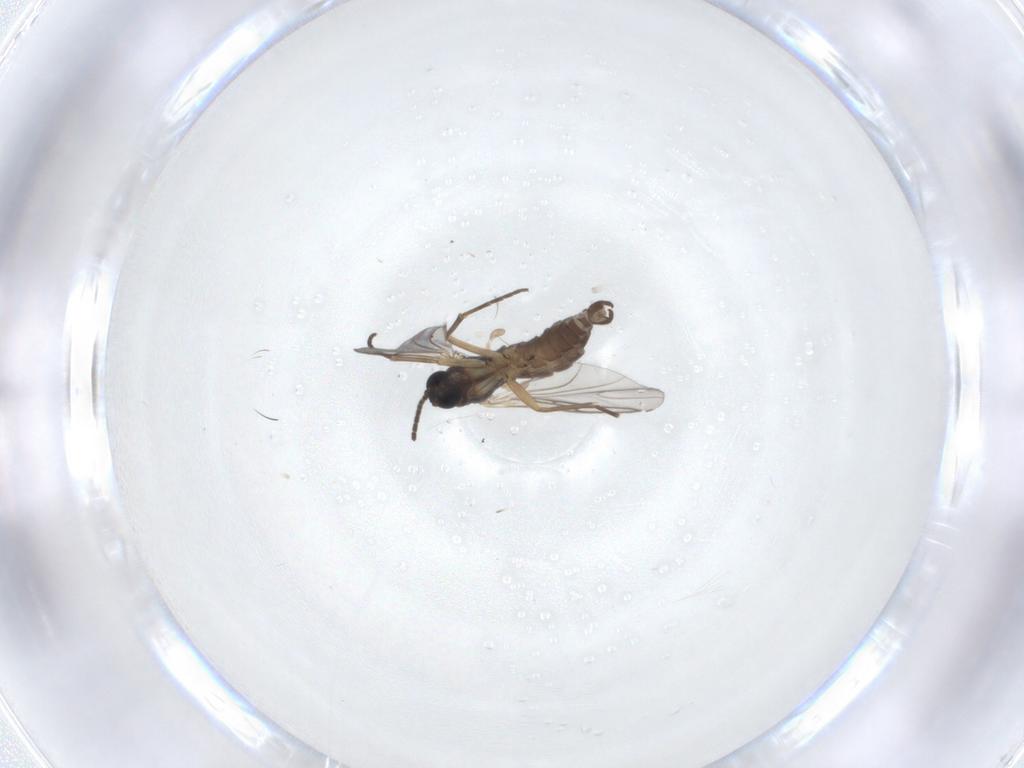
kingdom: Animalia
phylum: Arthropoda
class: Insecta
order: Diptera
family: Sciaridae
